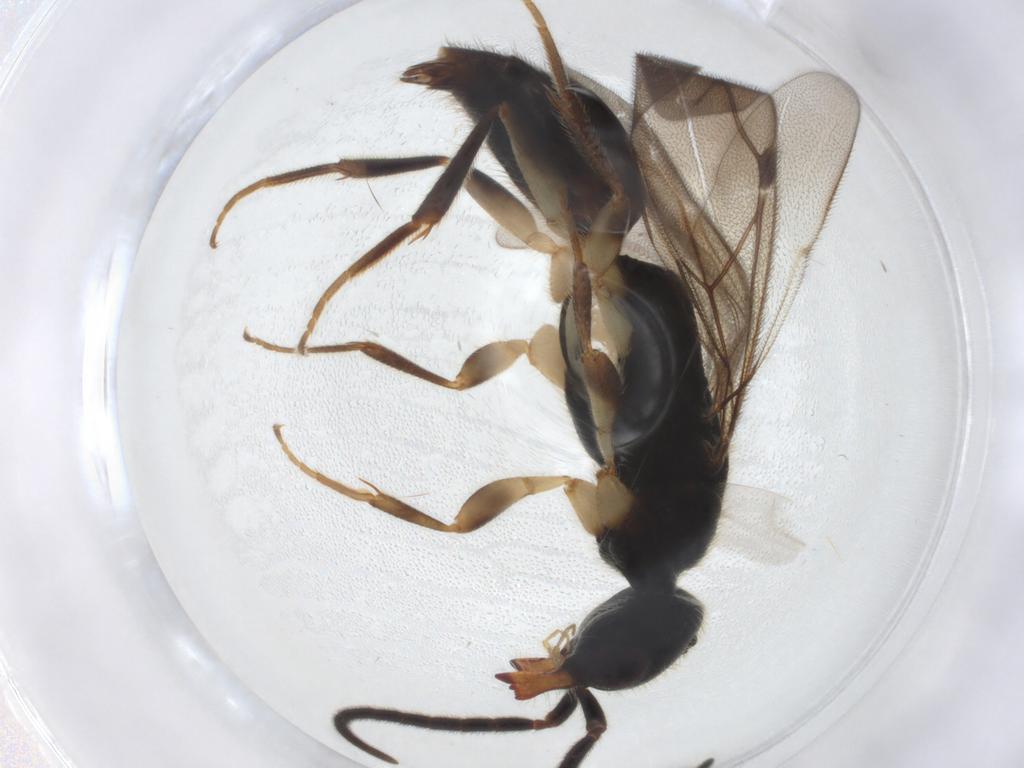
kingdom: Animalia
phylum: Arthropoda
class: Insecta
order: Hymenoptera
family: Bethylidae
